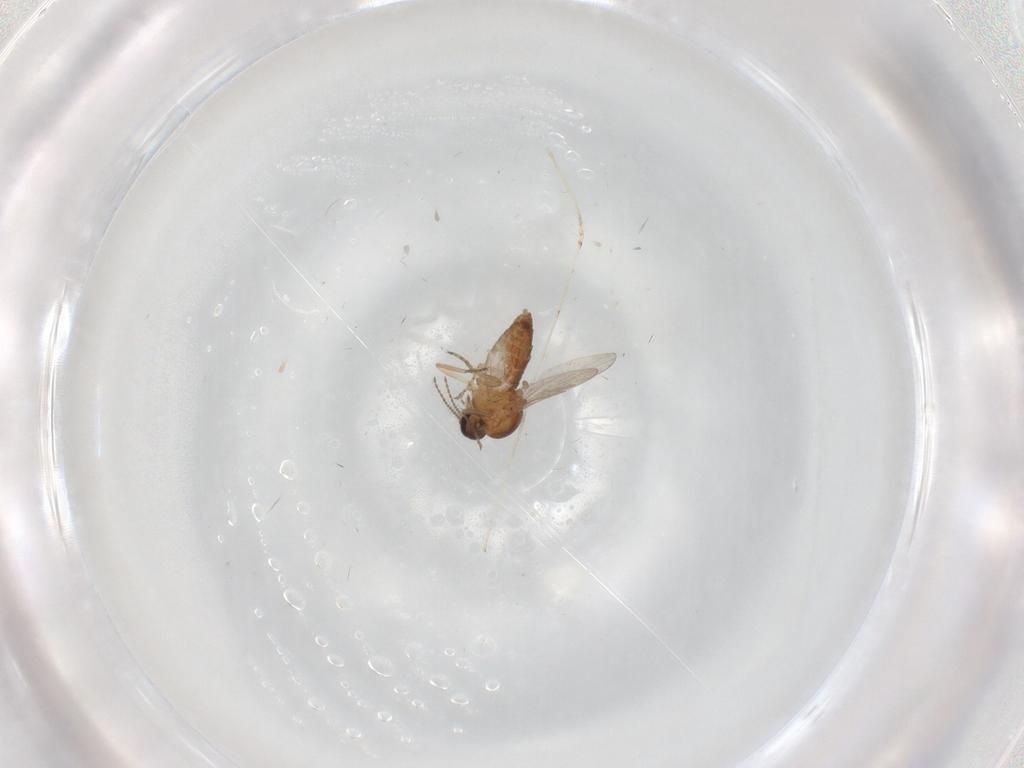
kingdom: Animalia
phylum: Arthropoda
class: Insecta
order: Diptera
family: Ceratopogonidae
